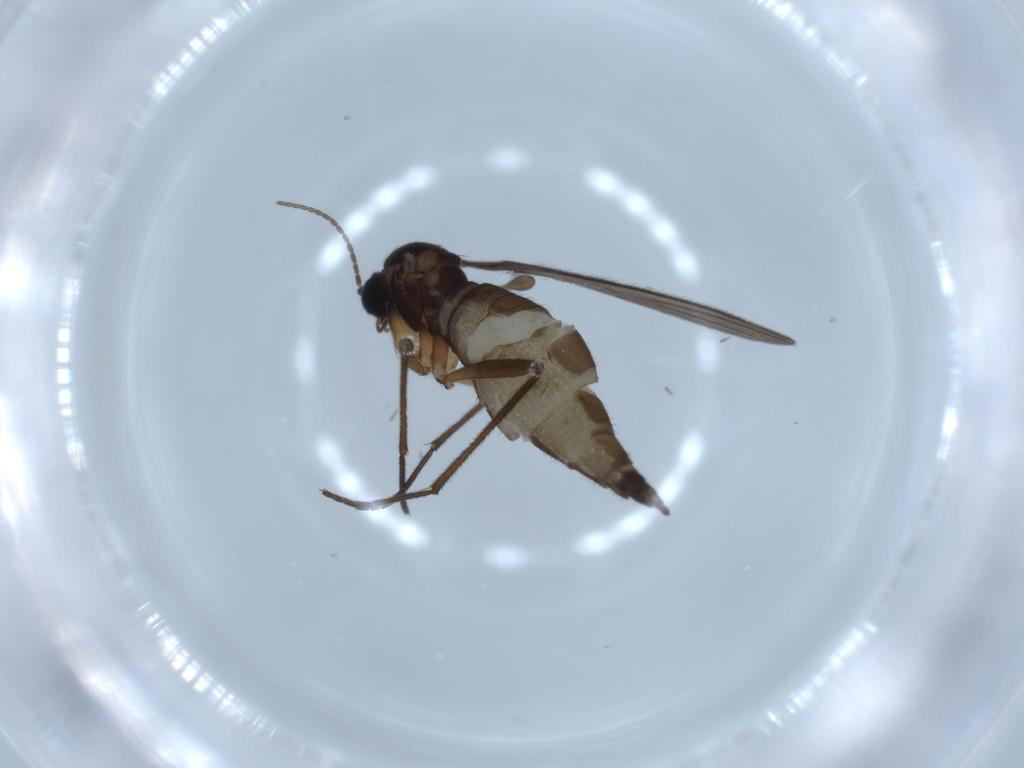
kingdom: Animalia
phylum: Arthropoda
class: Insecta
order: Diptera
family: Sciaridae
